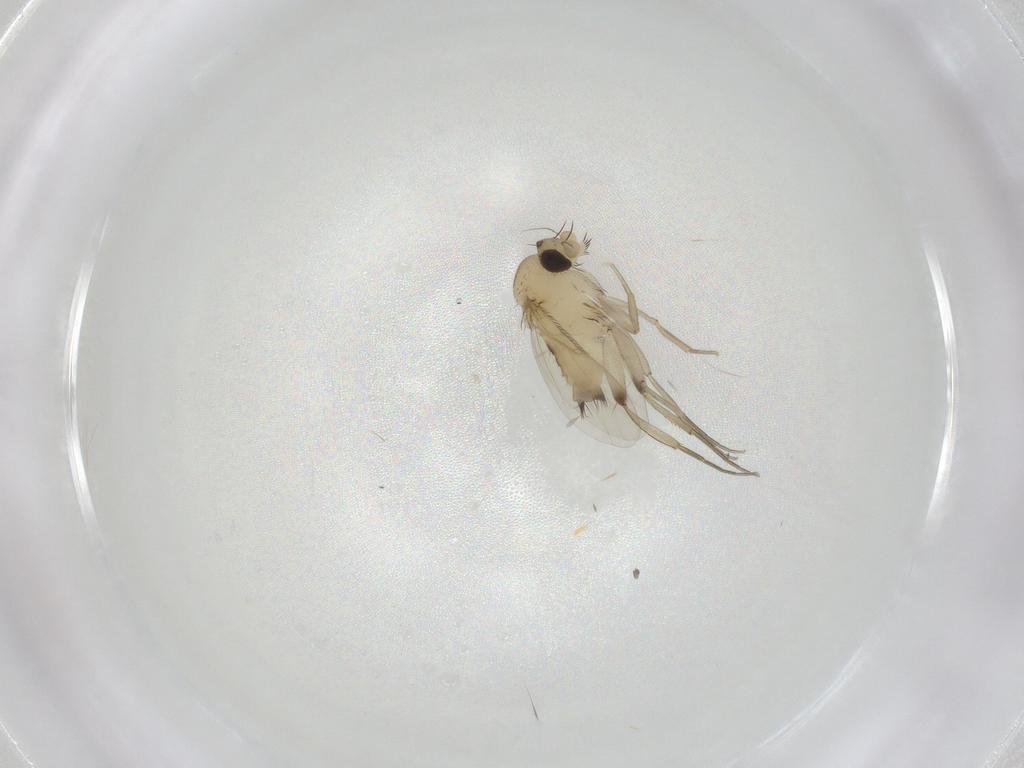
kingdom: Animalia
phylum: Arthropoda
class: Insecta
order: Diptera
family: Phoridae
